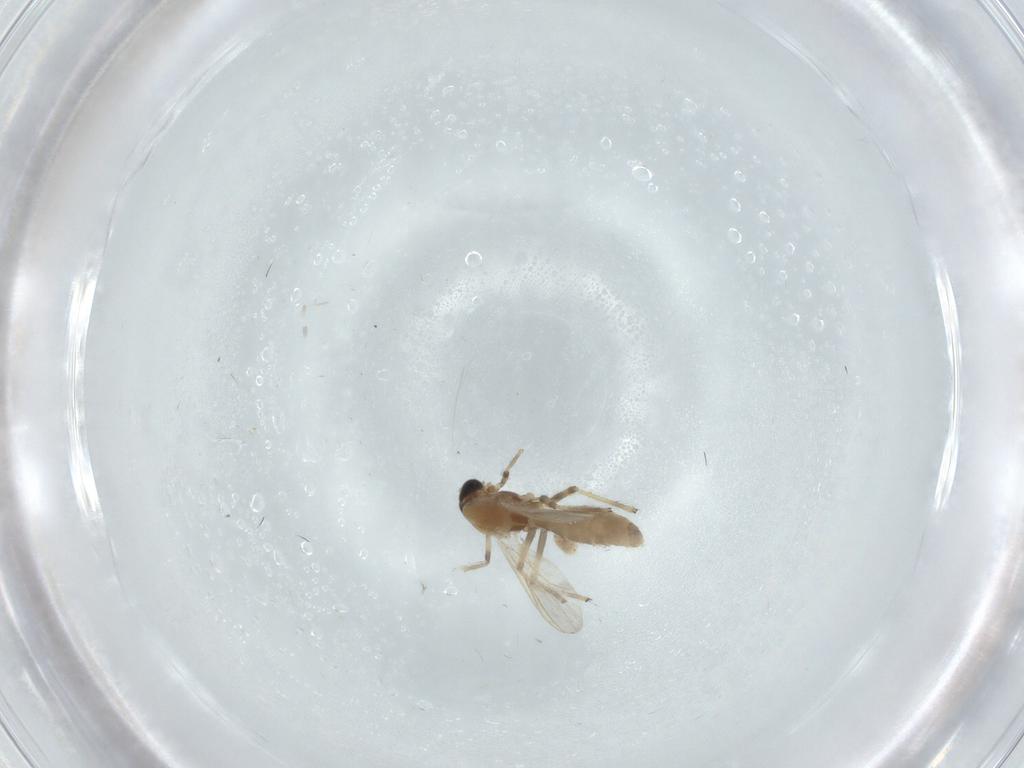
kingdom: Animalia
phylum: Arthropoda
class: Insecta
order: Diptera
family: Chironomidae
